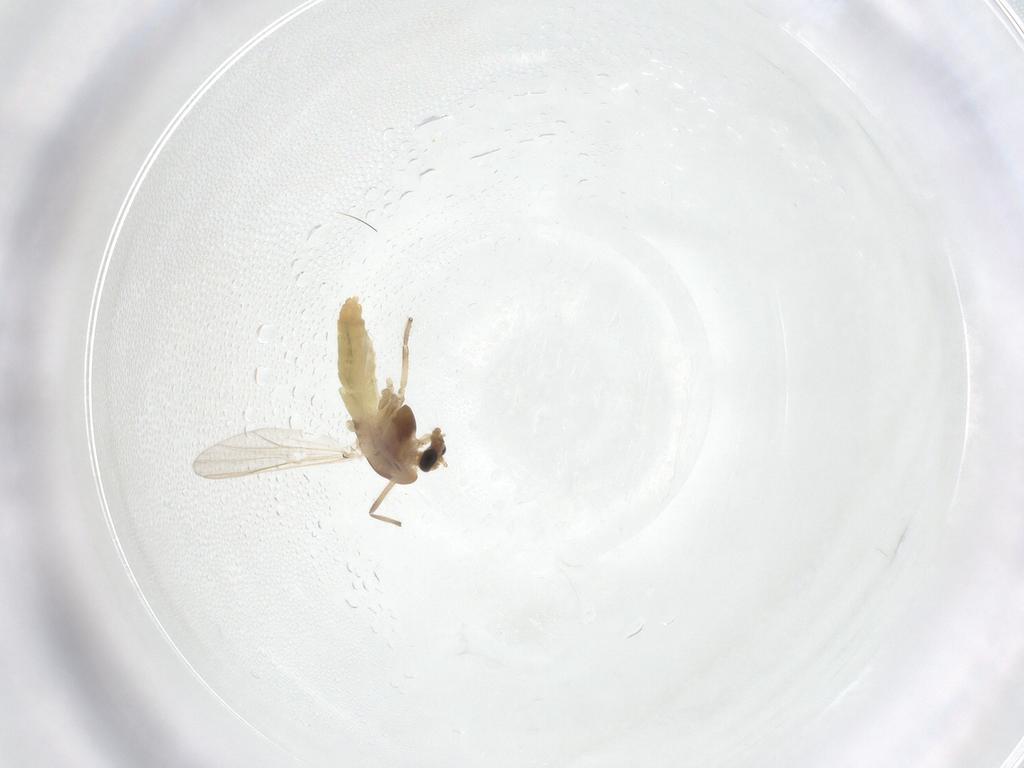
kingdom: Animalia
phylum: Arthropoda
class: Insecta
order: Diptera
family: Chironomidae
